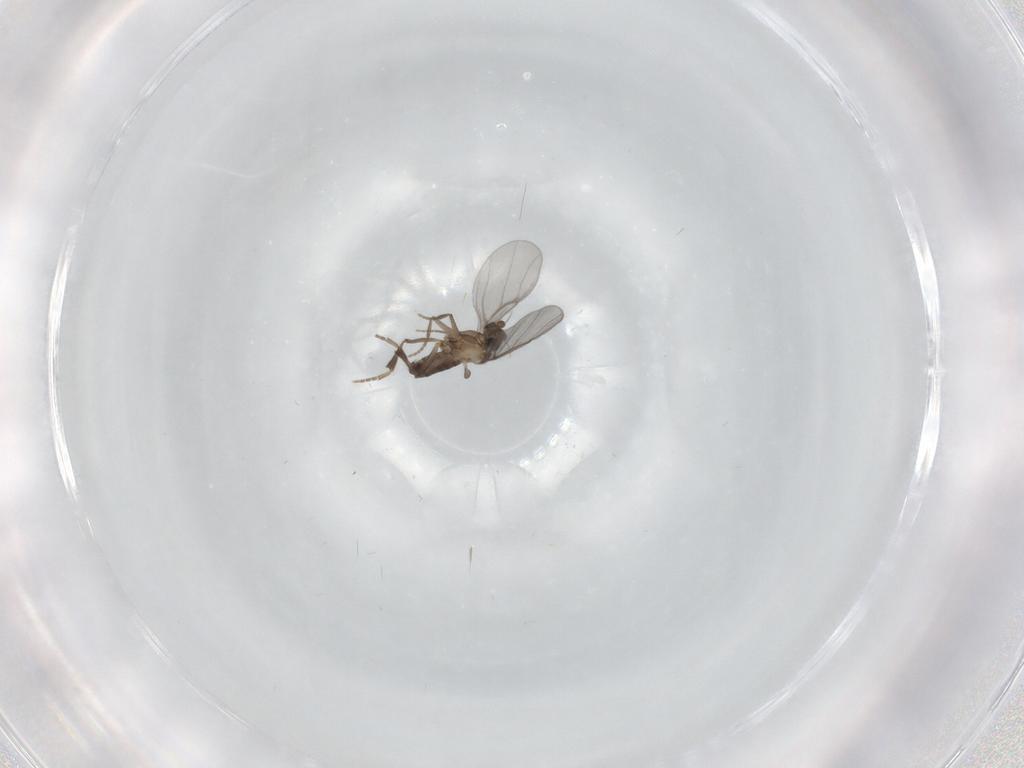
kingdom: Animalia
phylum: Arthropoda
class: Insecta
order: Diptera
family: Phoridae
